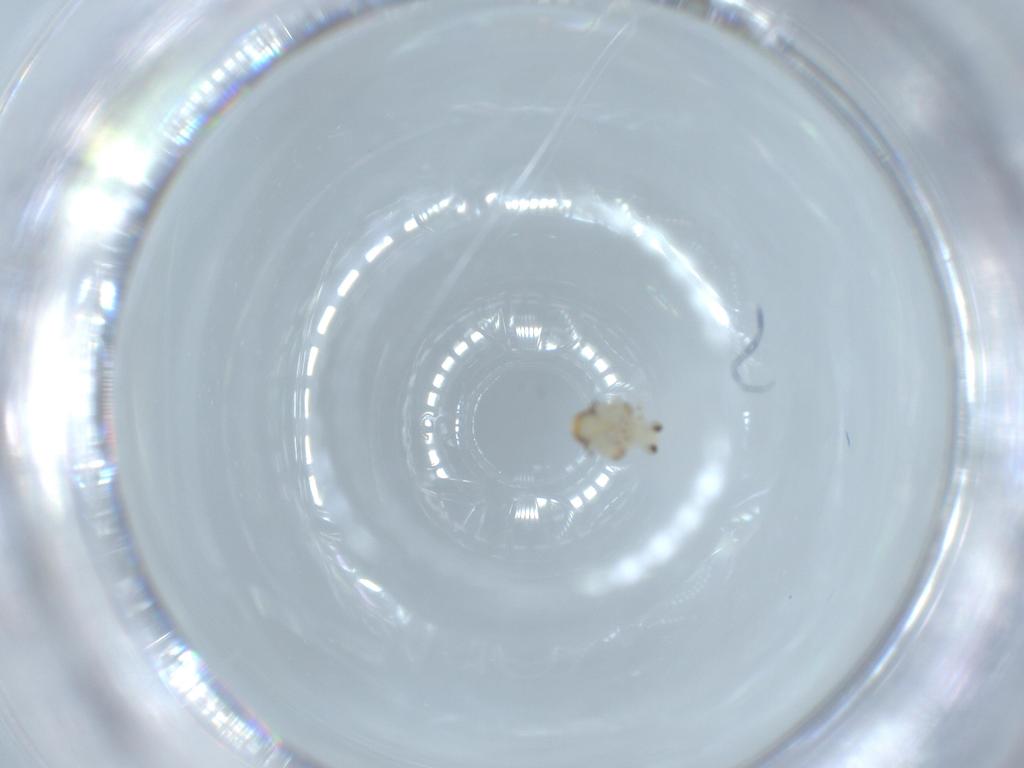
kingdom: Animalia
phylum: Arthropoda
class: Insecta
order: Hemiptera
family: Nogodinidae
